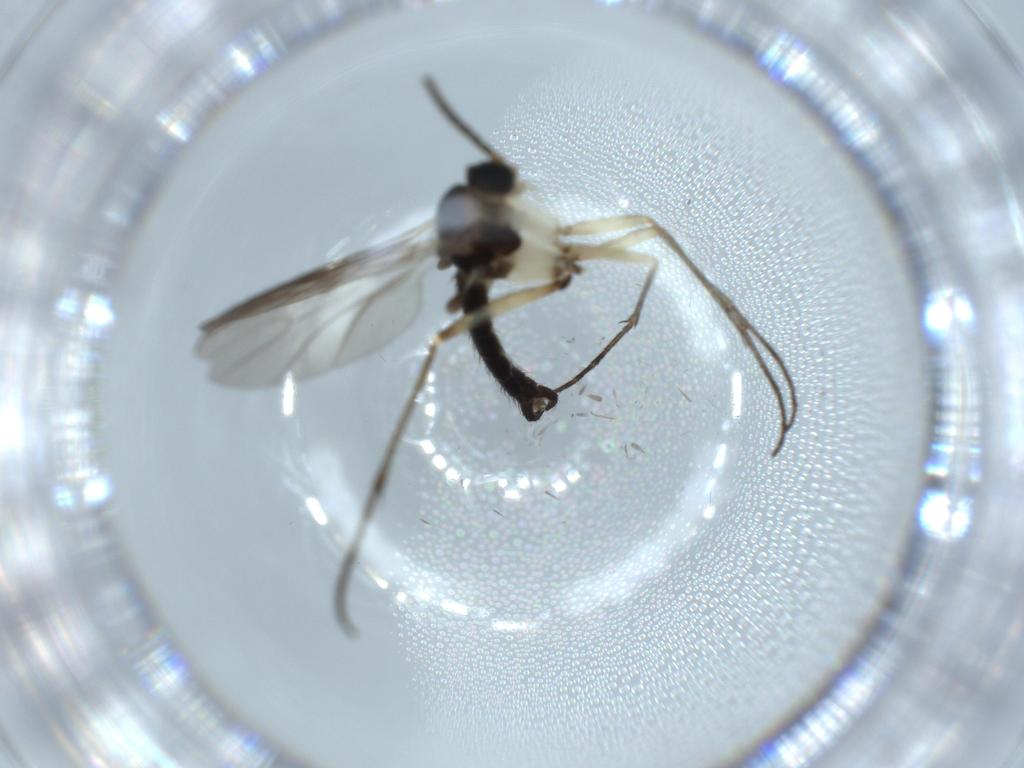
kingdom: Animalia
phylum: Arthropoda
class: Insecta
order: Diptera
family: Sciaridae
